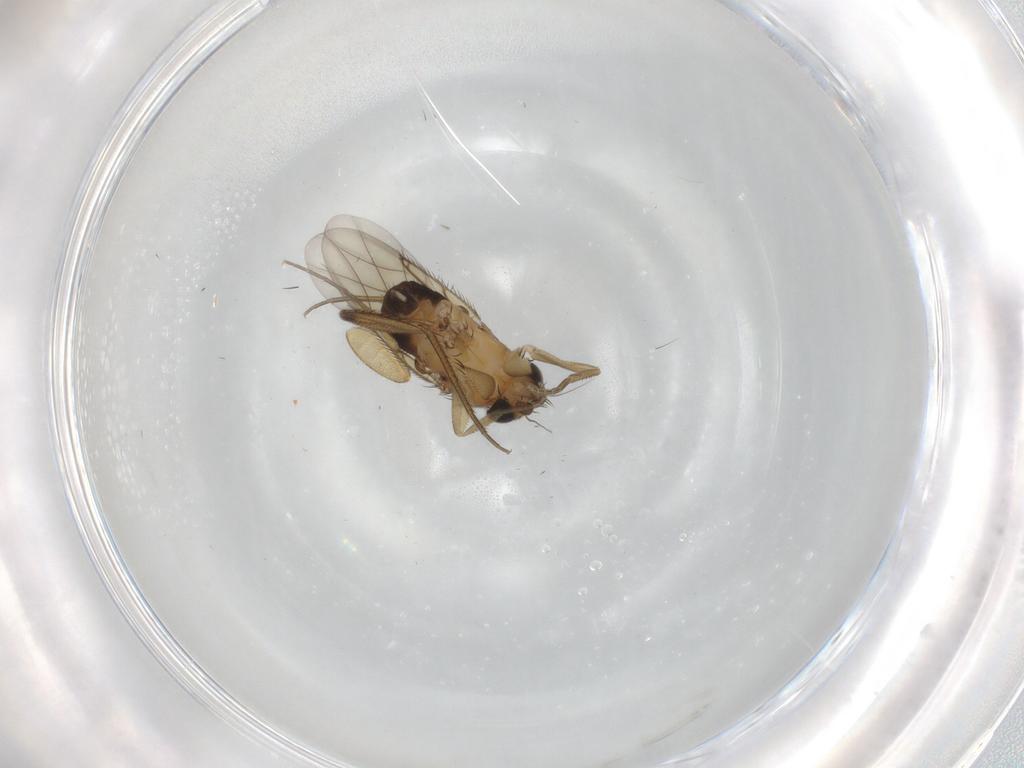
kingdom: Animalia
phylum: Arthropoda
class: Insecta
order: Diptera
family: Phoridae
